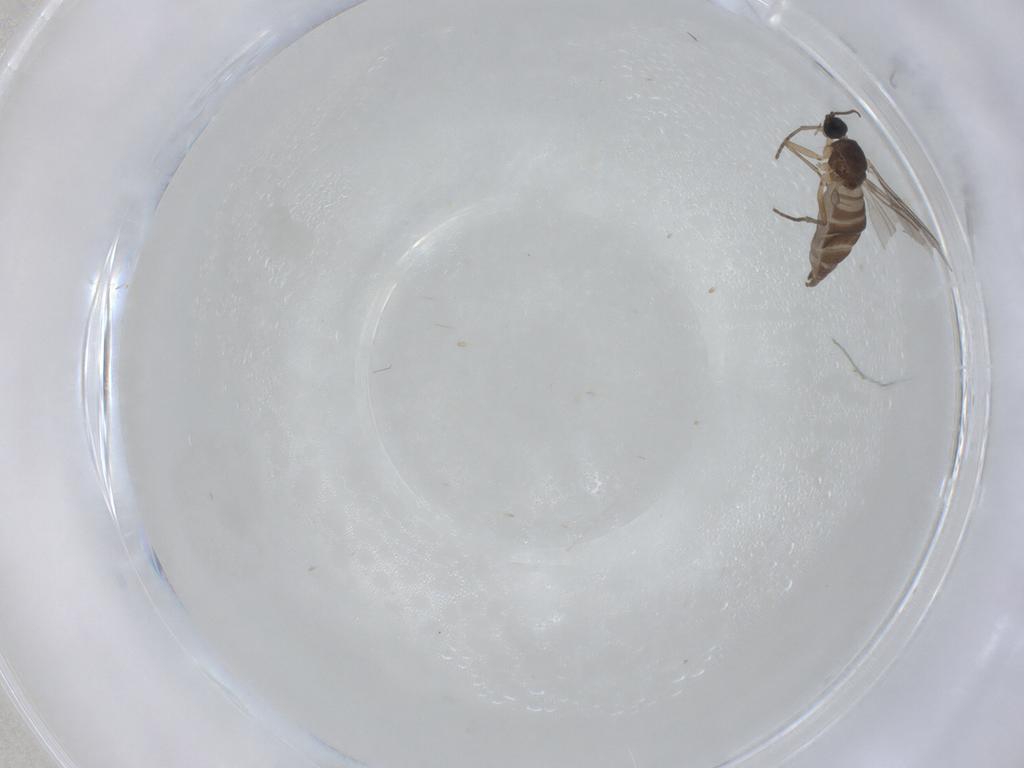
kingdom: Animalia
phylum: Arthropoda
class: Insecta
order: Diptera
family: Sciaridae
